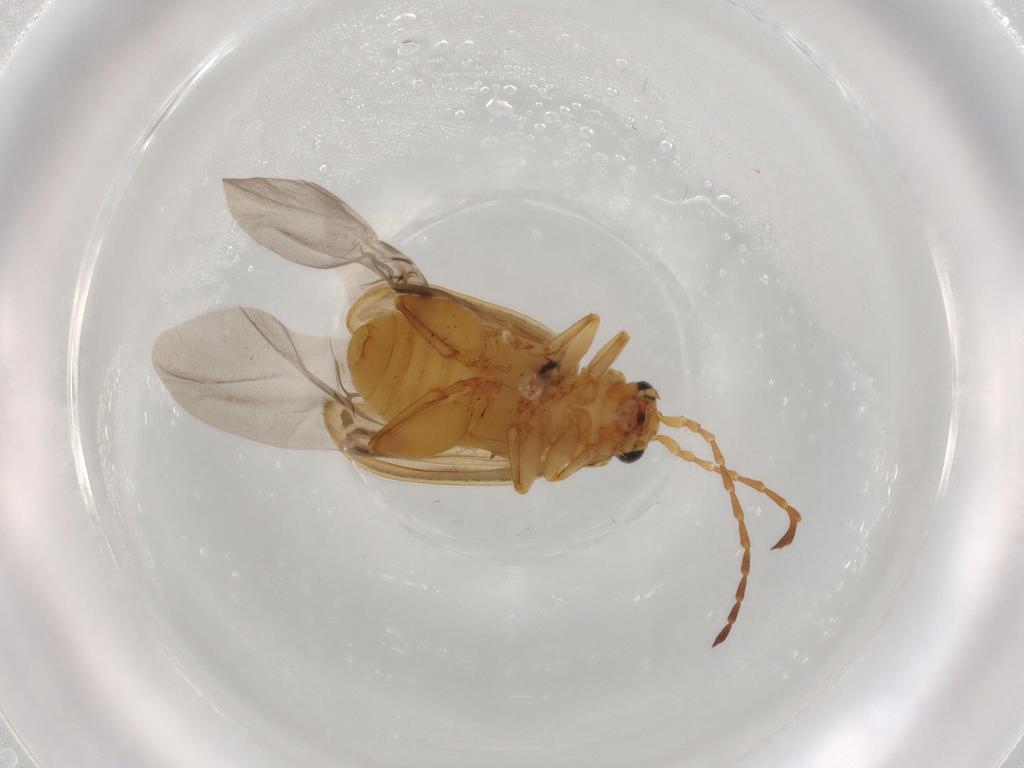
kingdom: Animalia
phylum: Arthropoda
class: Insecta
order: Coleoptera
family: Chrysomelidae
